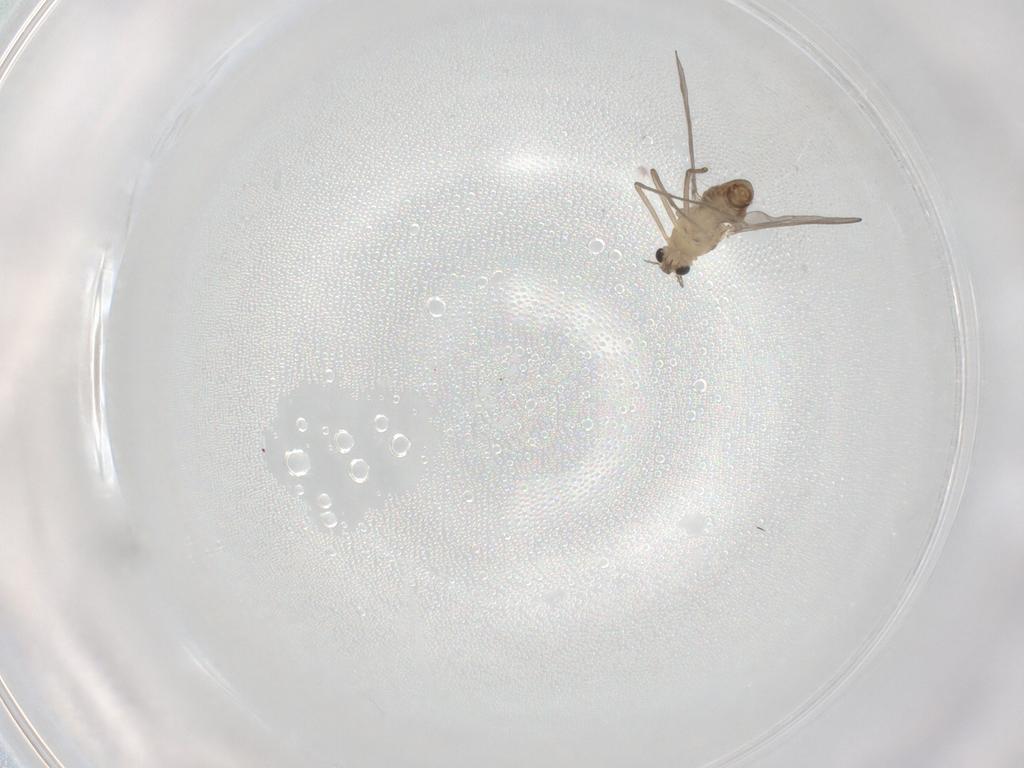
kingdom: Animalia
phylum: Arthropoda
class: Insecta
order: Diptera
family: Chironomidae
